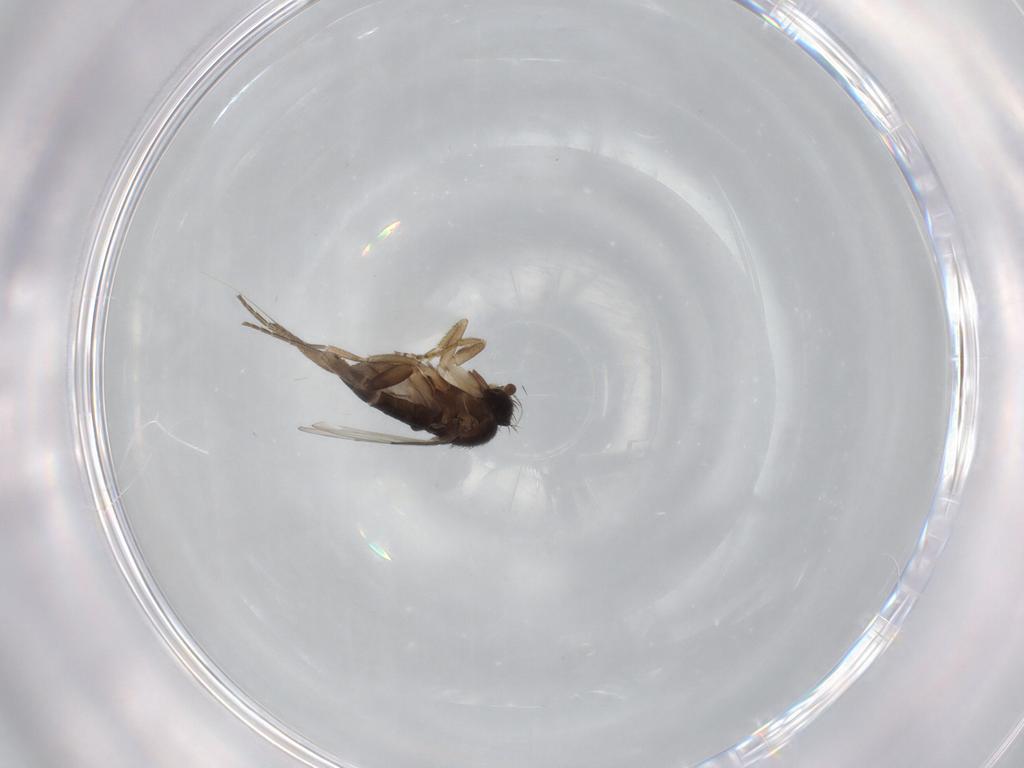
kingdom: Animalia
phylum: Arthropoda
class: Insecta
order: Diptera
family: Phoridae
